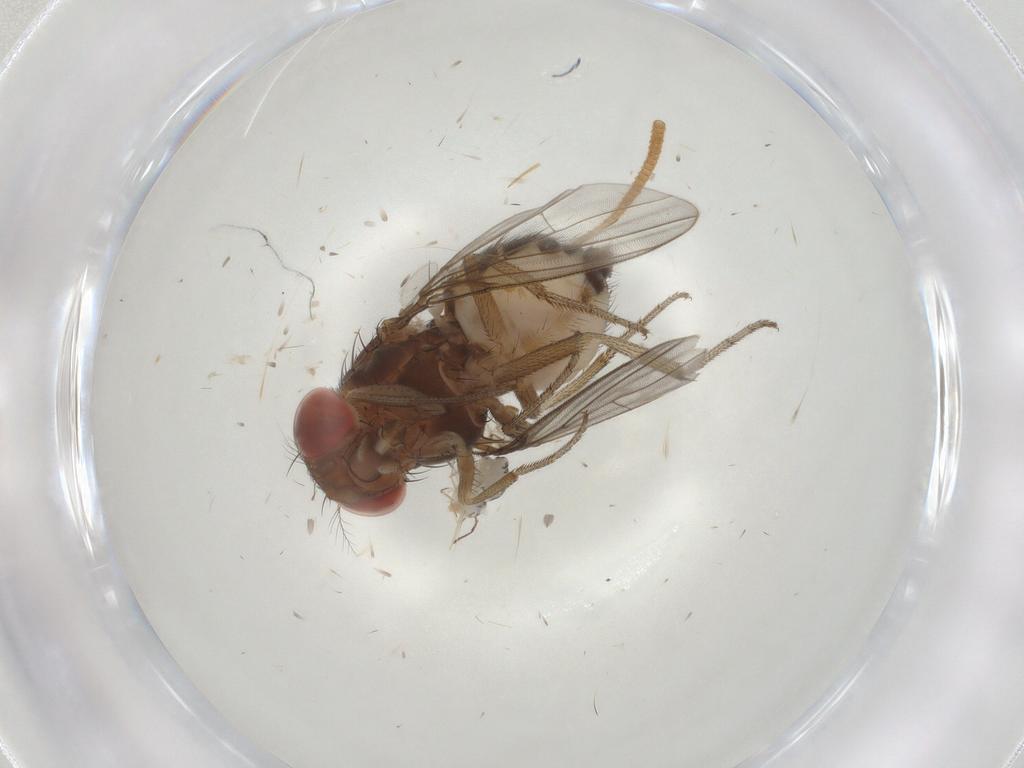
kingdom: Animalia
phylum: Arthropoda
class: Insecta
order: Diptera
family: Drosophilidae
